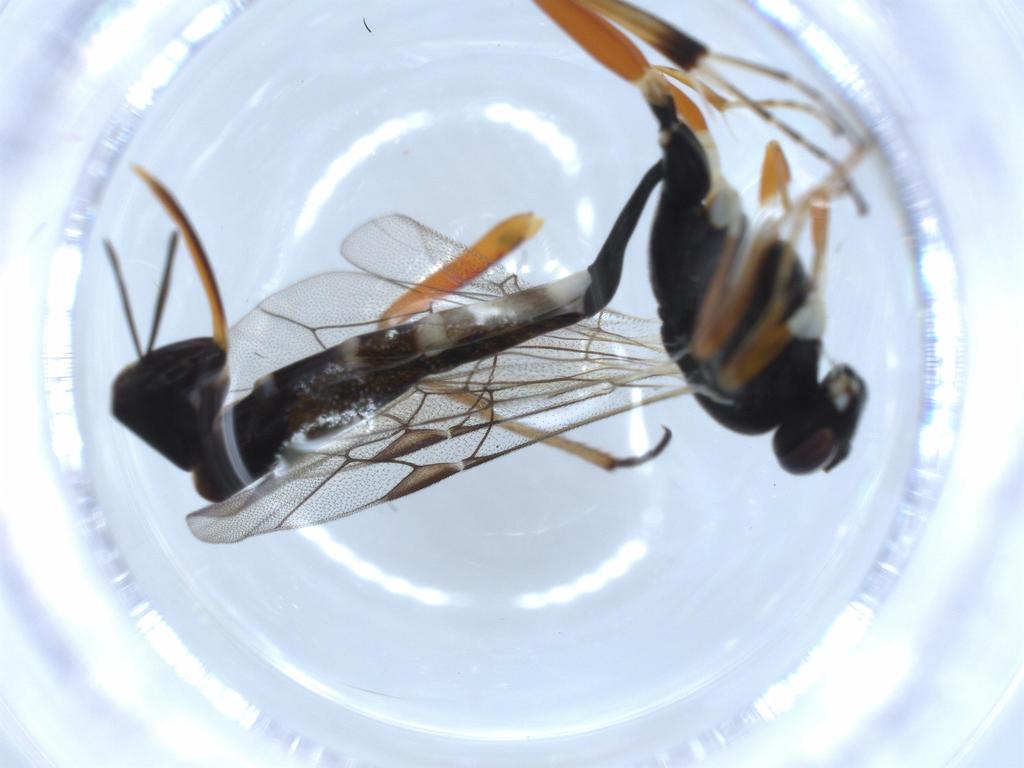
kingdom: Animalia
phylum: Arthropoda
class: Insecta
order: Hymenoptera
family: Ichneumonidae
